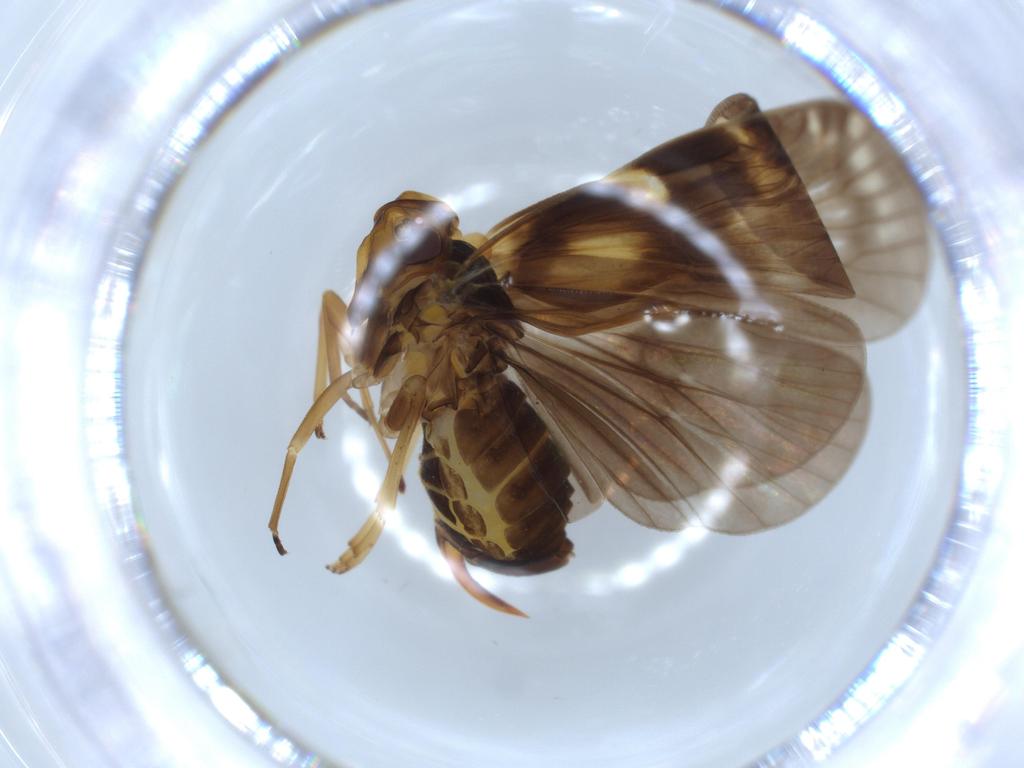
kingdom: Animalia
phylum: Arthropoda
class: Insecta
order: Hemiptera
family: Cixiidae
